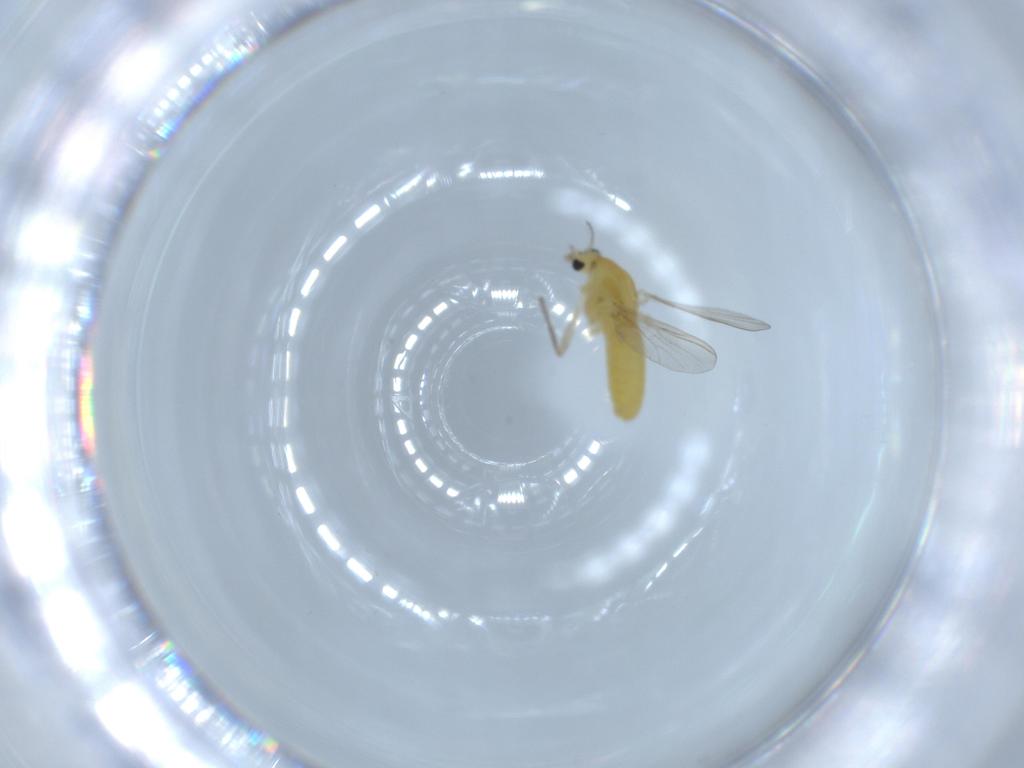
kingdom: Animalia
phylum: Arthropoda
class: Insecta
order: Diptera
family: Chironomidae
